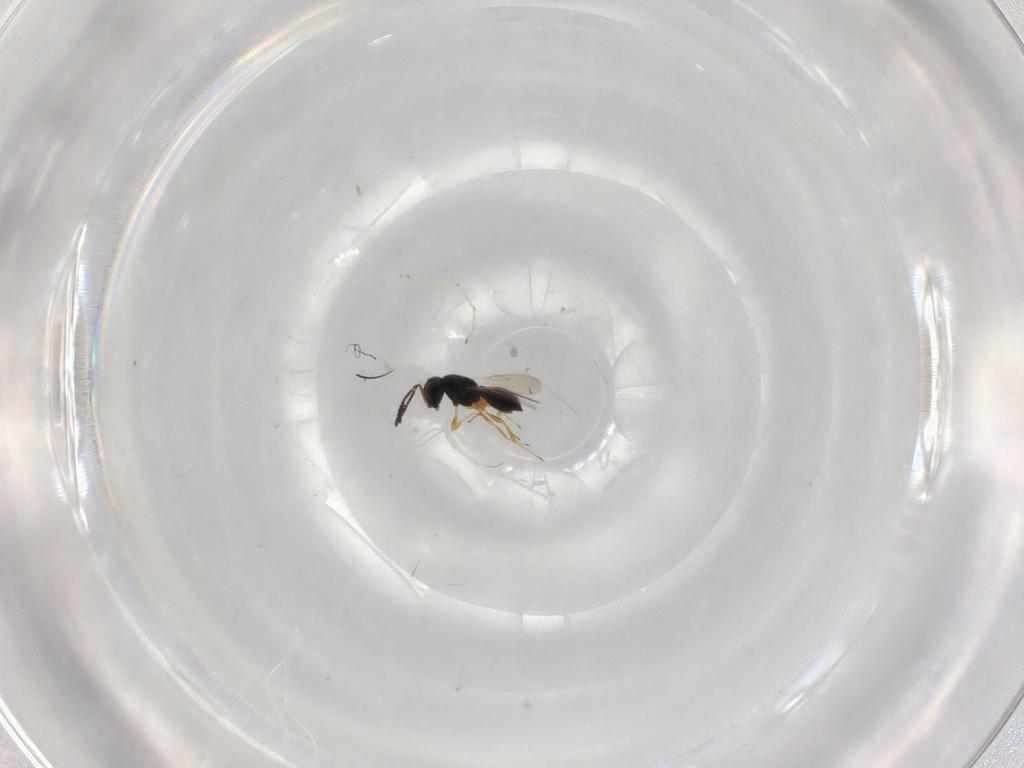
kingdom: Animalia
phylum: Arthropoda
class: Insecta
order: Hymenoptera
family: Scelionidae
